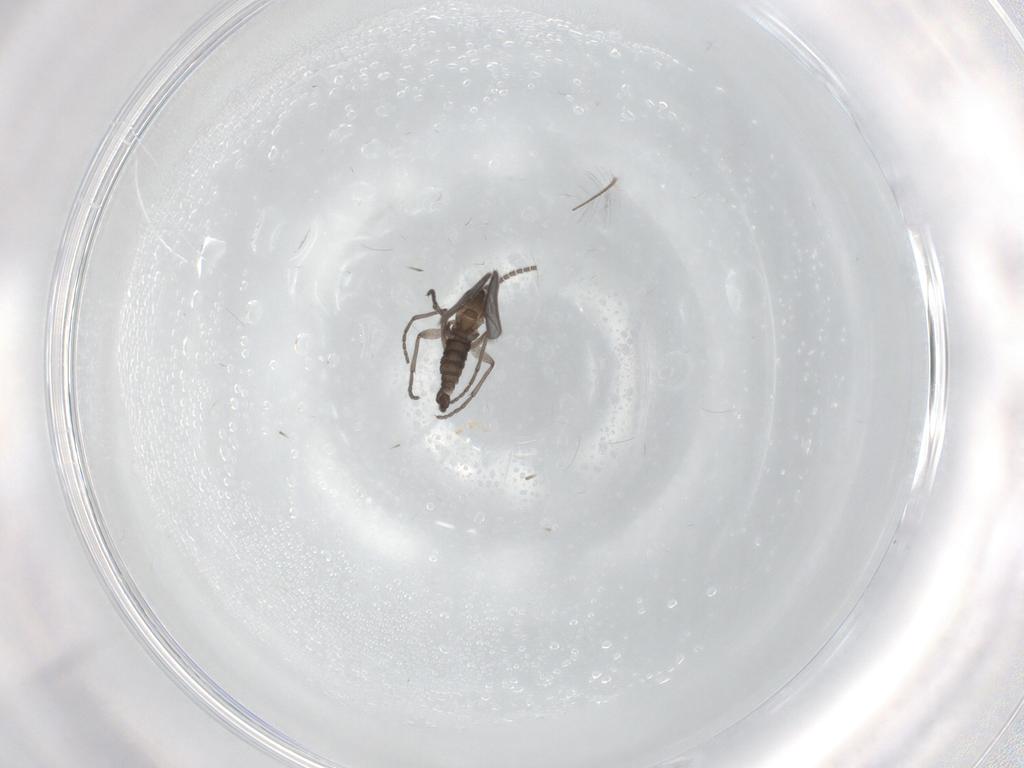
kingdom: Animalia
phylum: Arthropoda
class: Insecta
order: Diptera
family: Sciaridae
